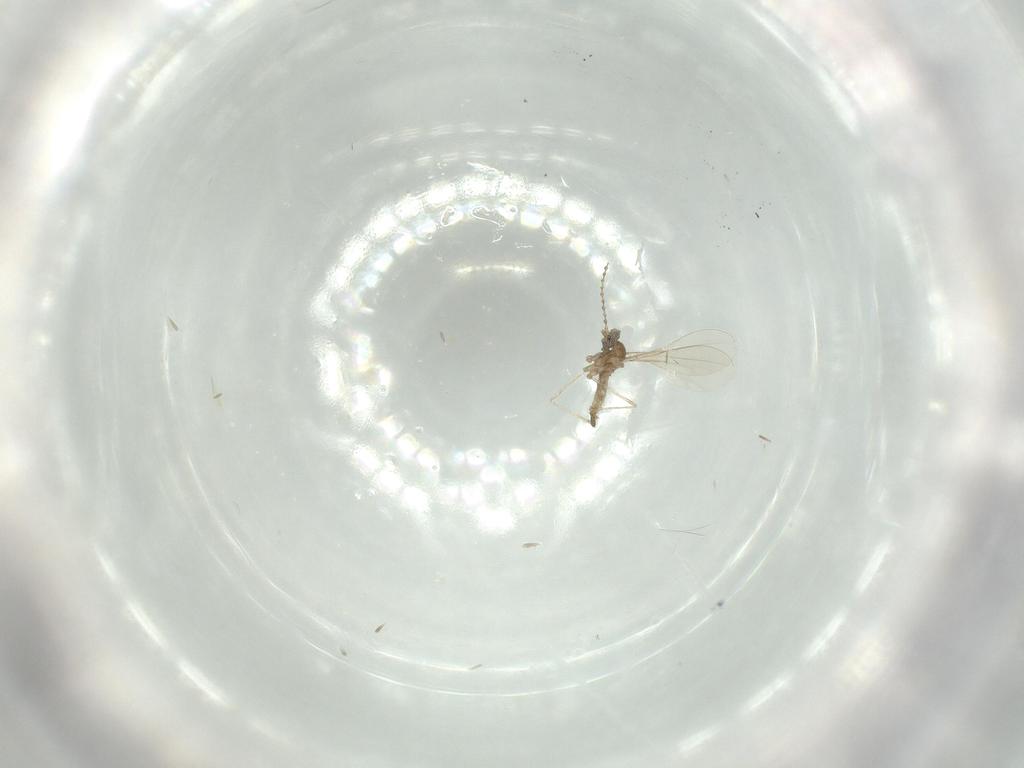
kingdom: Animalia
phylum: Arthropoda
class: Insecta
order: Diptera
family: Cecidomyiidae
